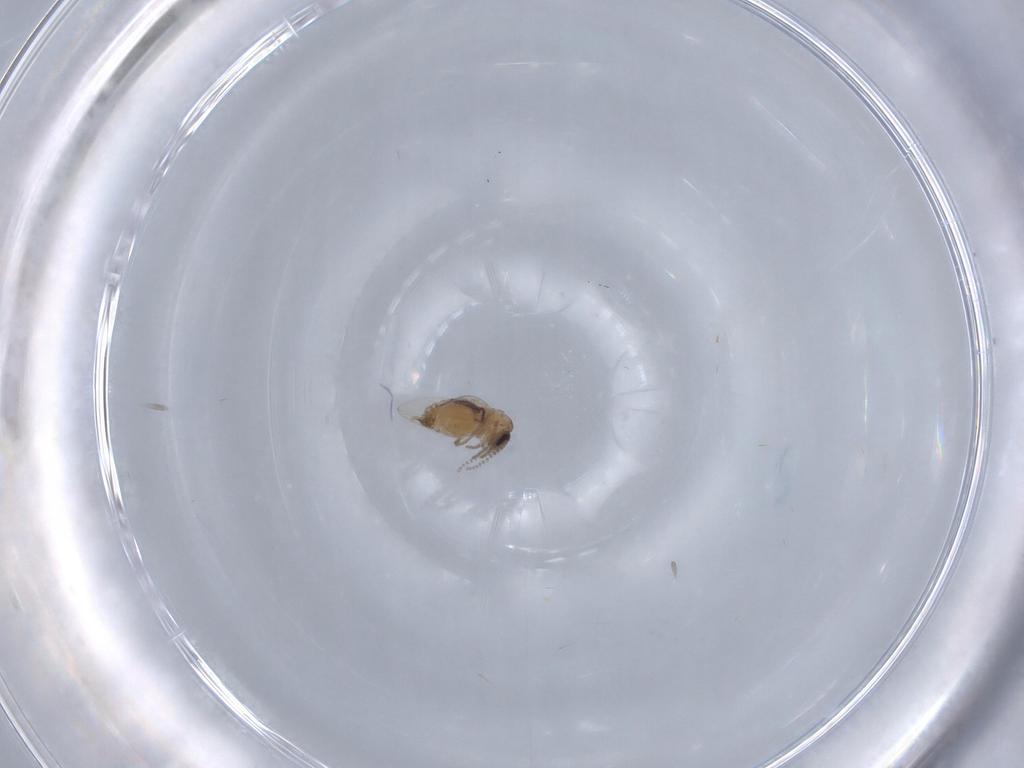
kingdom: Animalia
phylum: Arthropoda
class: Insecta
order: Diptera
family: Psychodidae
